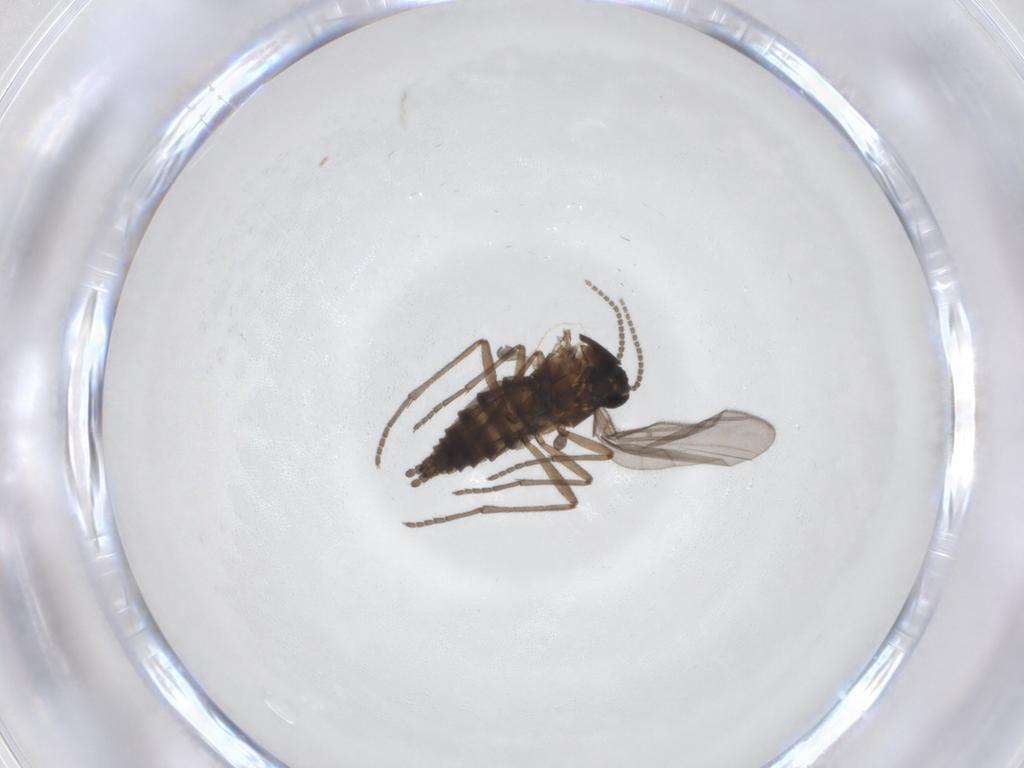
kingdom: Animalia
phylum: Arthropoda
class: Insecta
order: Diptera
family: Sciaridae
